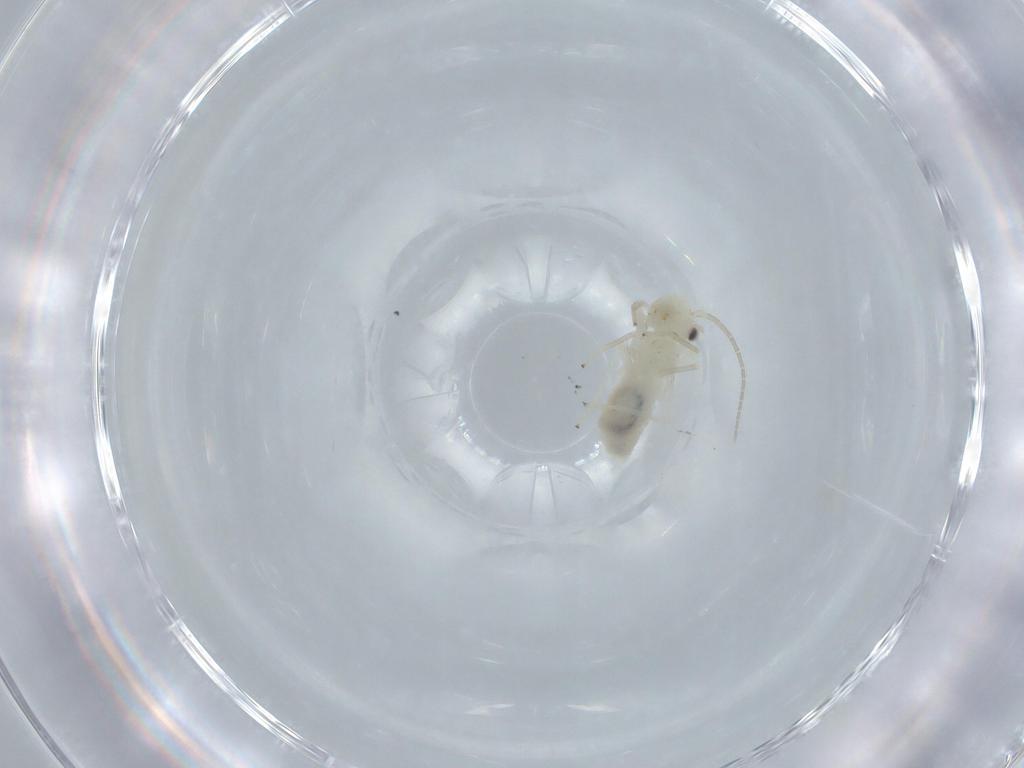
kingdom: Animalia
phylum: Arthropoda
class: Insecta
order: Psocodea
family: Caeciliusidae
